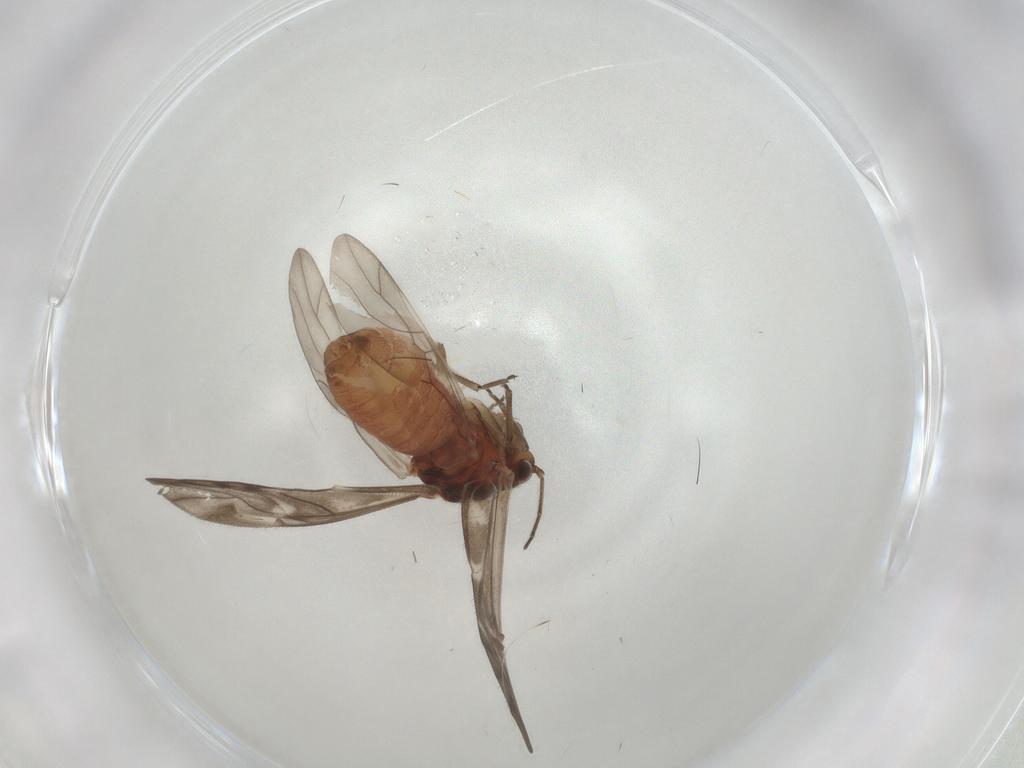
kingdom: Animalia
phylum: Arthropoda
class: Insecta
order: Psocodea
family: Caeciliusidae
